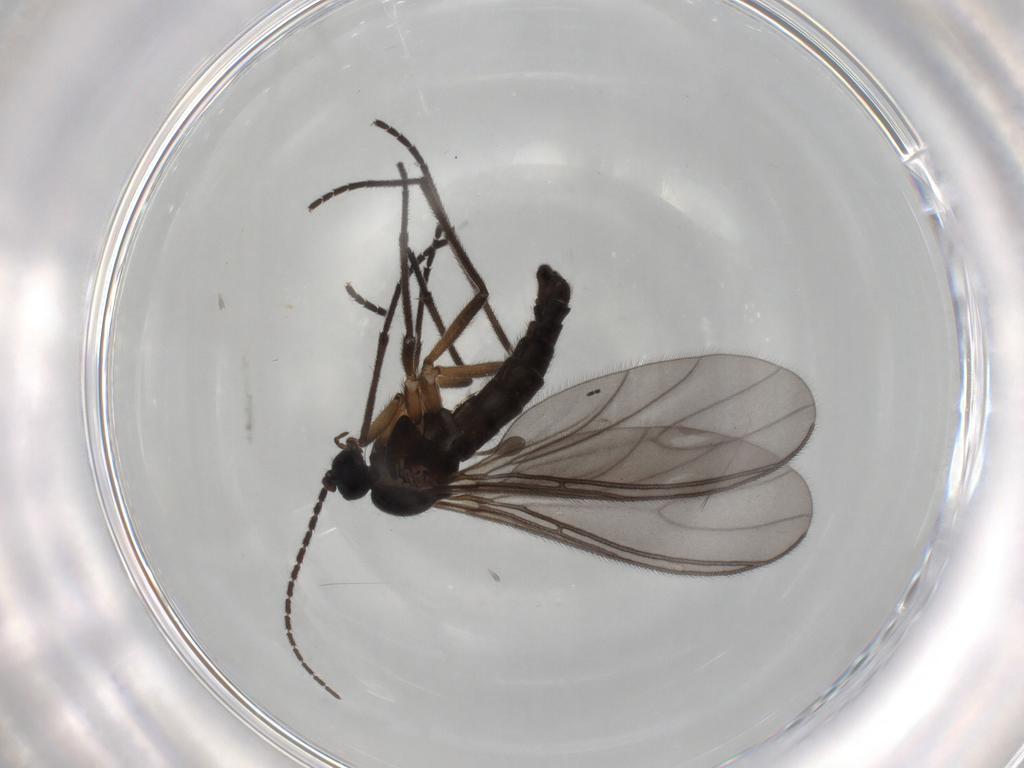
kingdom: Animalia
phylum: Arthropoda
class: Insecta
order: Diptera
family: Sciaridae
